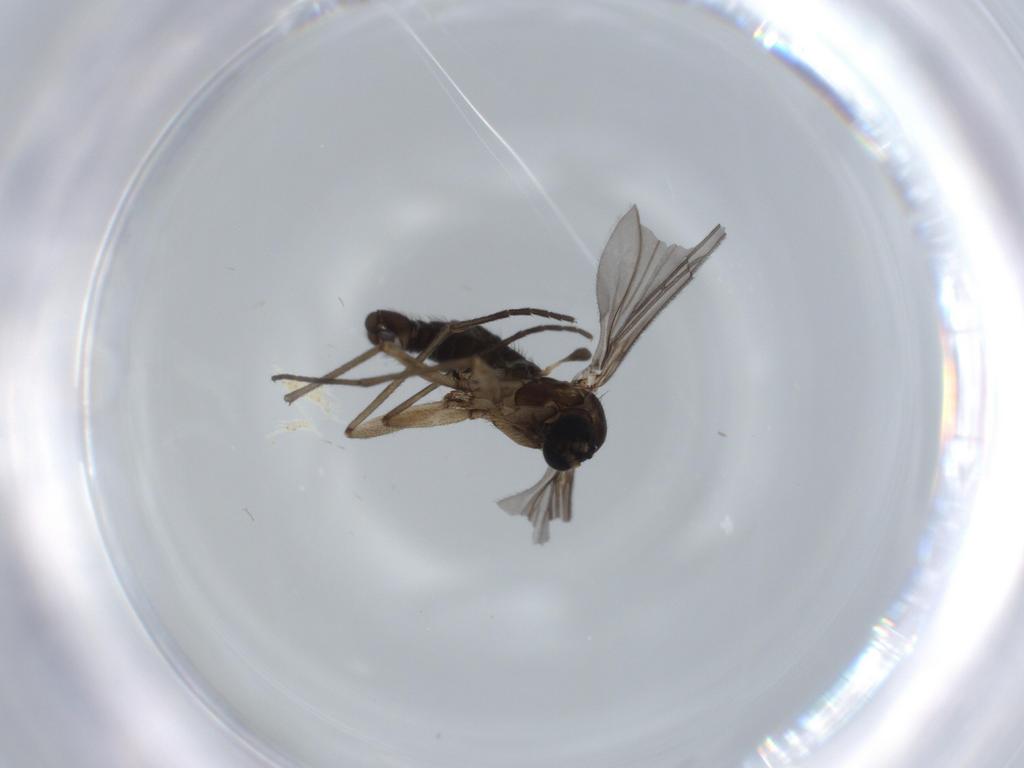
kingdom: Animalia
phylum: Arthropoda
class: Insecta
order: Diptera
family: Sciaridae
